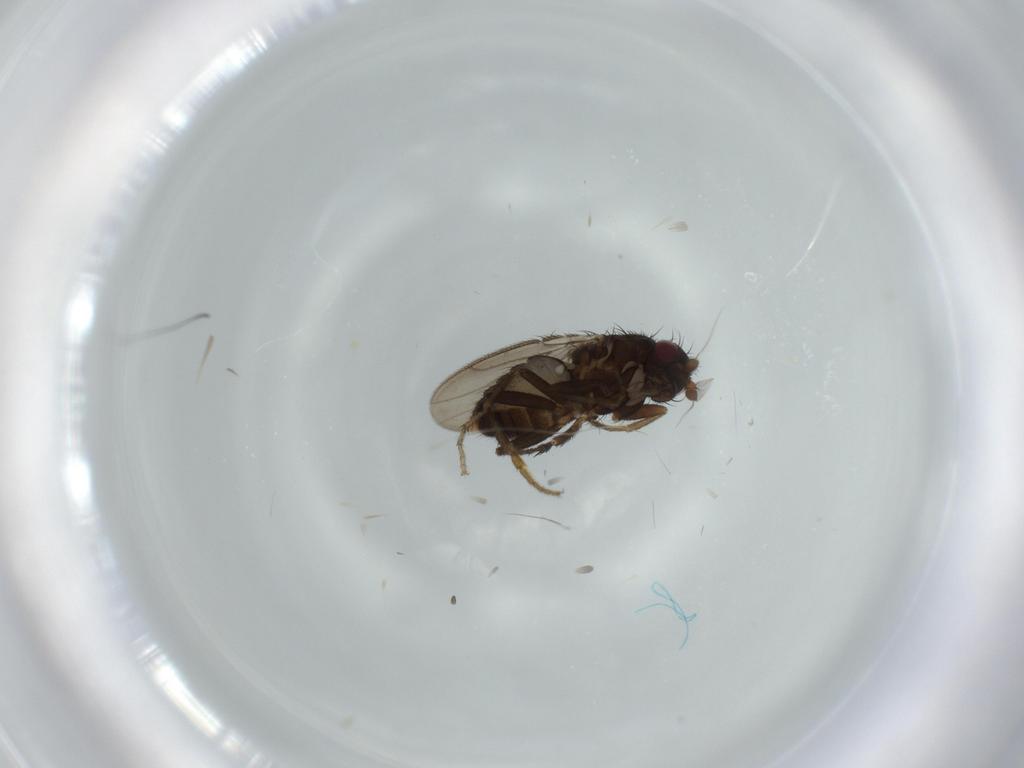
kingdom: Animalia
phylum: Arthropoda
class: Insecta
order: Diptera
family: Sphaeroceridae
